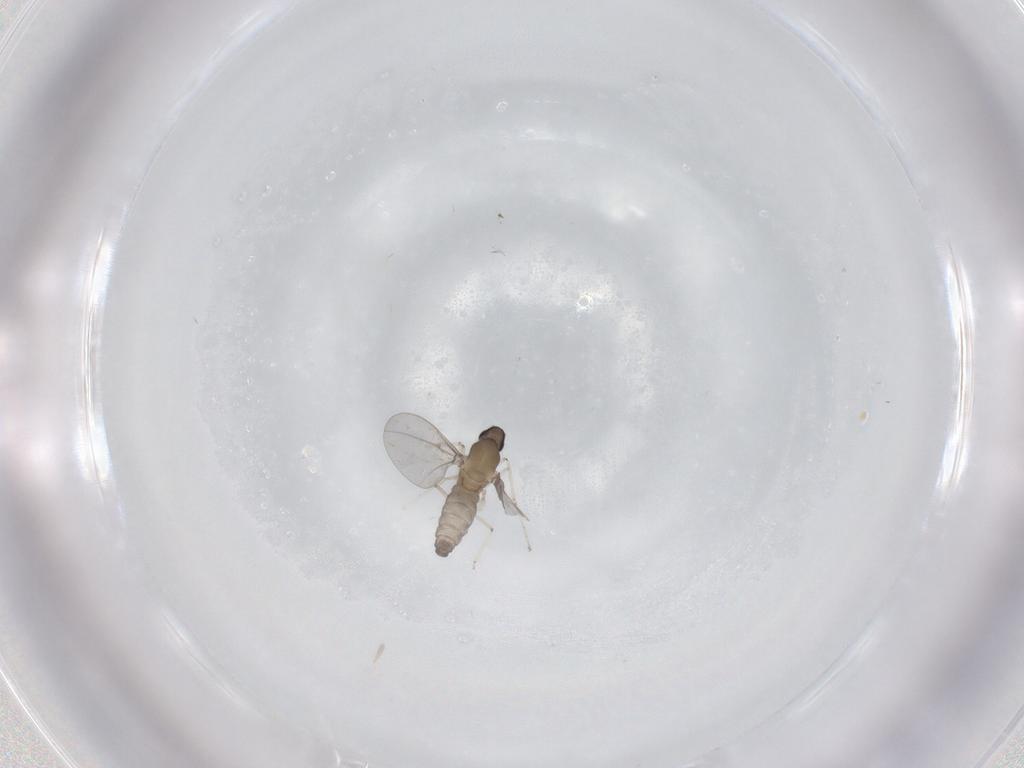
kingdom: Animalia
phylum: Arthropoda
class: Insecta
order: Diptera
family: Cecidomyiidae
